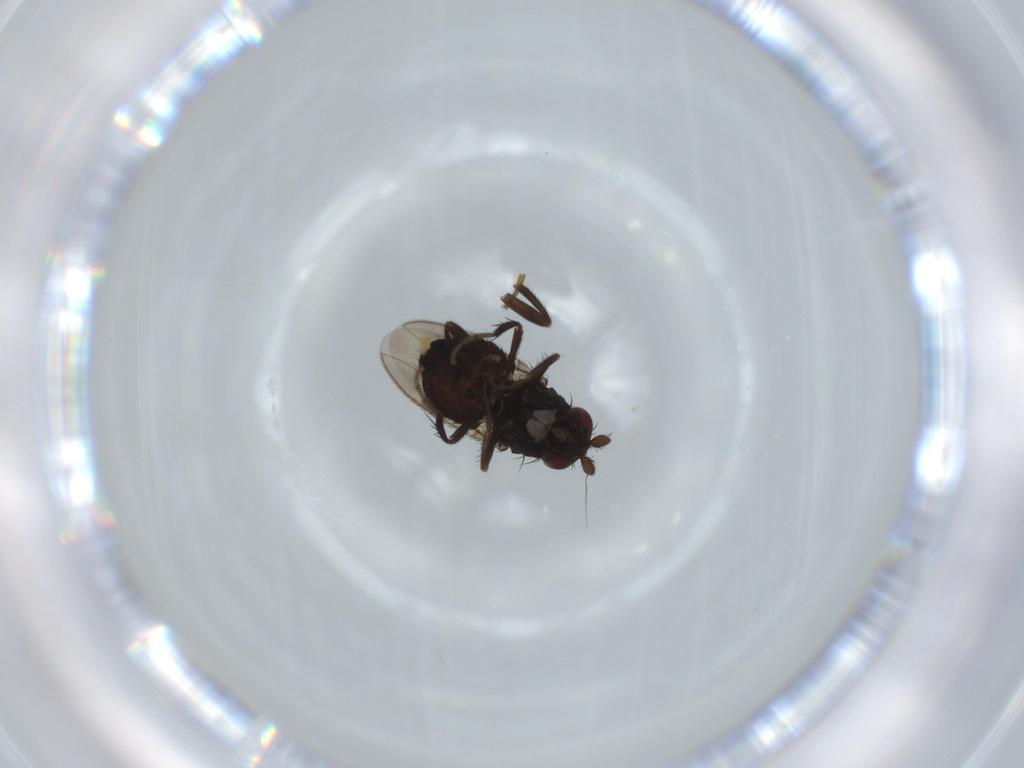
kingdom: Animalia
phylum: Arthropoda
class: Insecta
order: Diptera
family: Sphaeroceridae
